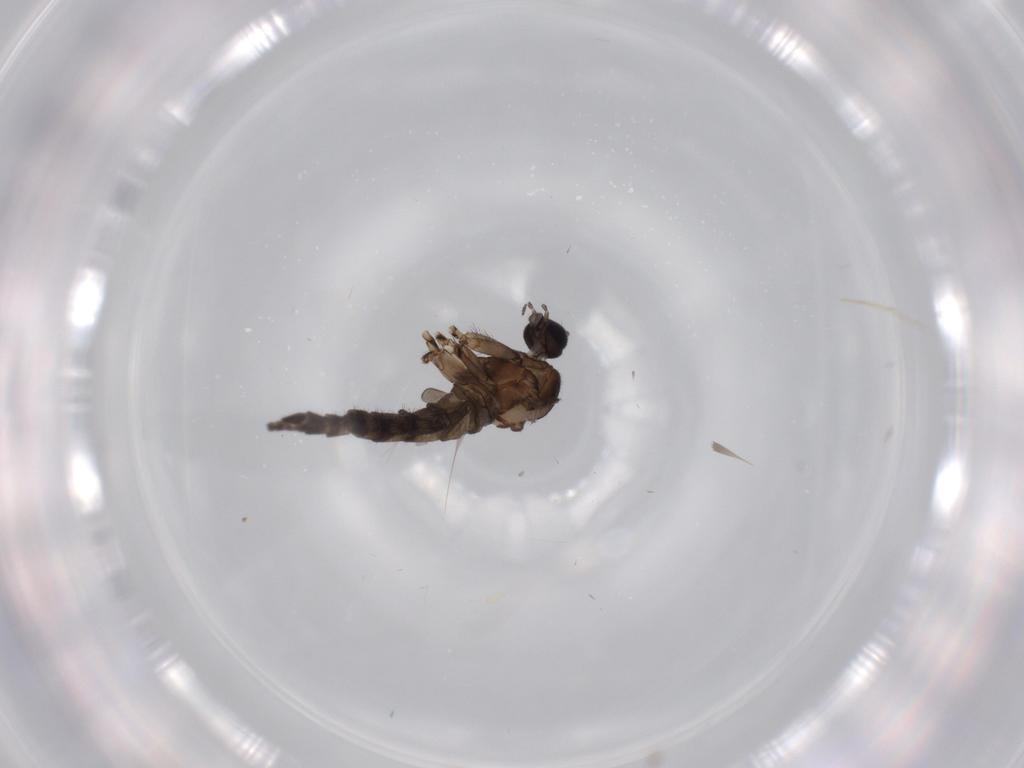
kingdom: Animalia
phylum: Arthropoda
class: Insecta
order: Diptera
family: Sciaridae
